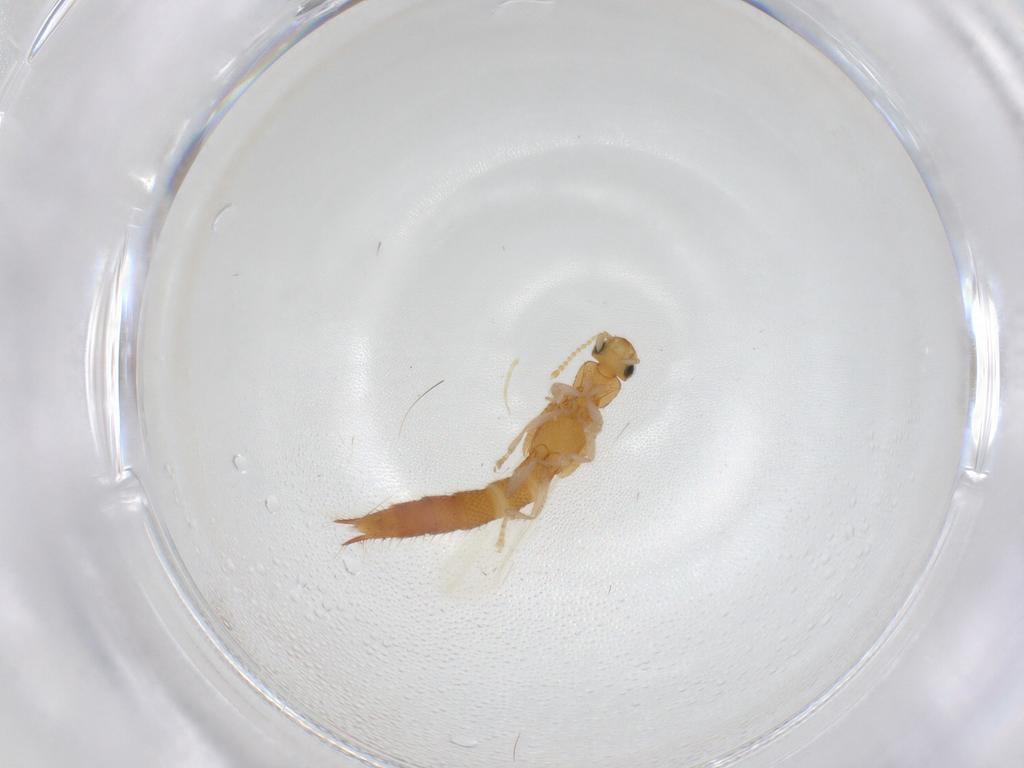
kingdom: Animalia
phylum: Arthropoda
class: Insecta
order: Coleoptera
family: Staphylinidae
